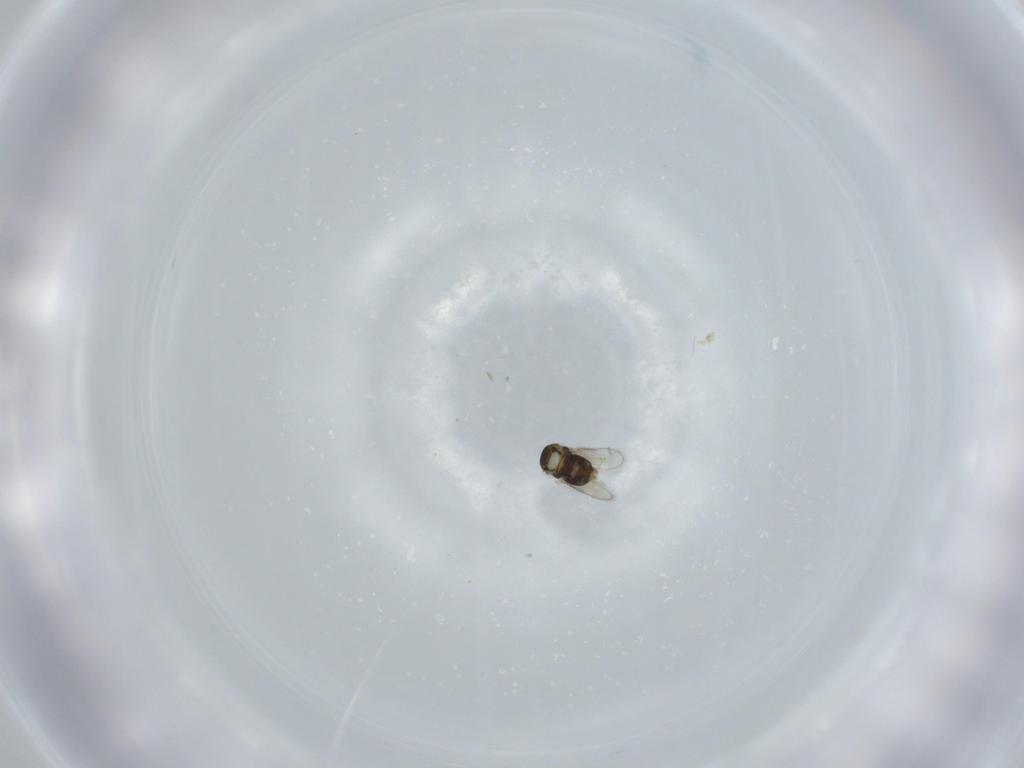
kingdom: Animalia
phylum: Arthropoda
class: Insecta
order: Hymenoptera
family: Aphelinidae
